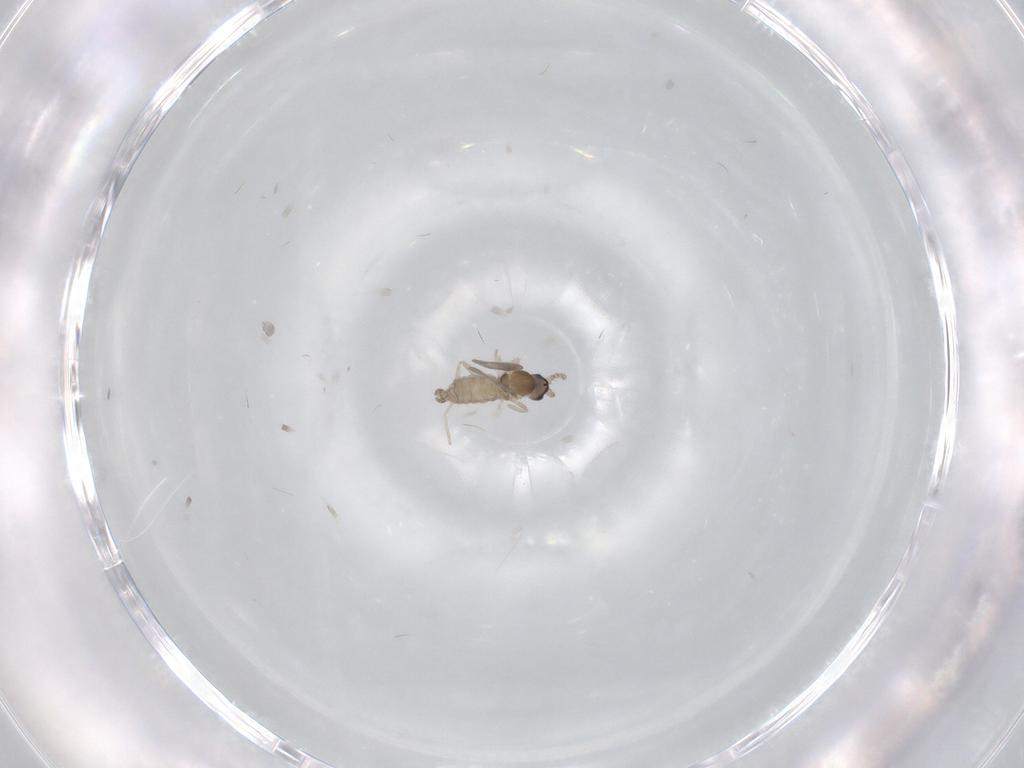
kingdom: Animalia
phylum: Arthropoda
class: Insecta
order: Diptera
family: Cecidomyiidae
